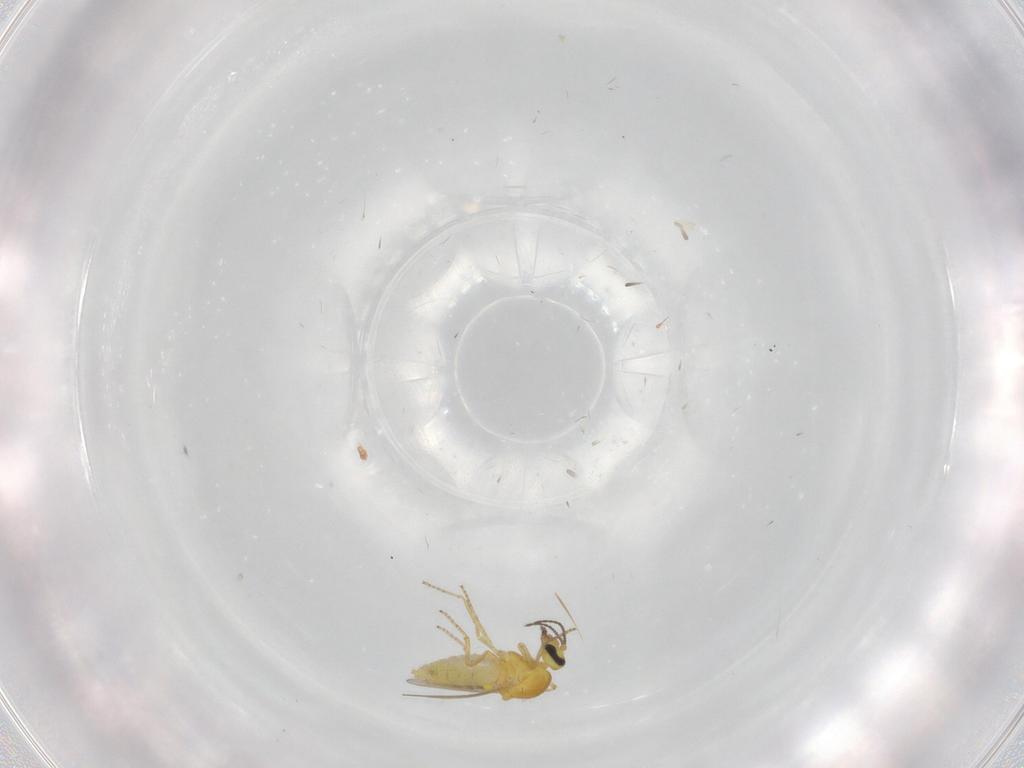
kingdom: Animalia
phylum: Arthropoda
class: Insecta
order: Diptera
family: Ceratopogonidae
